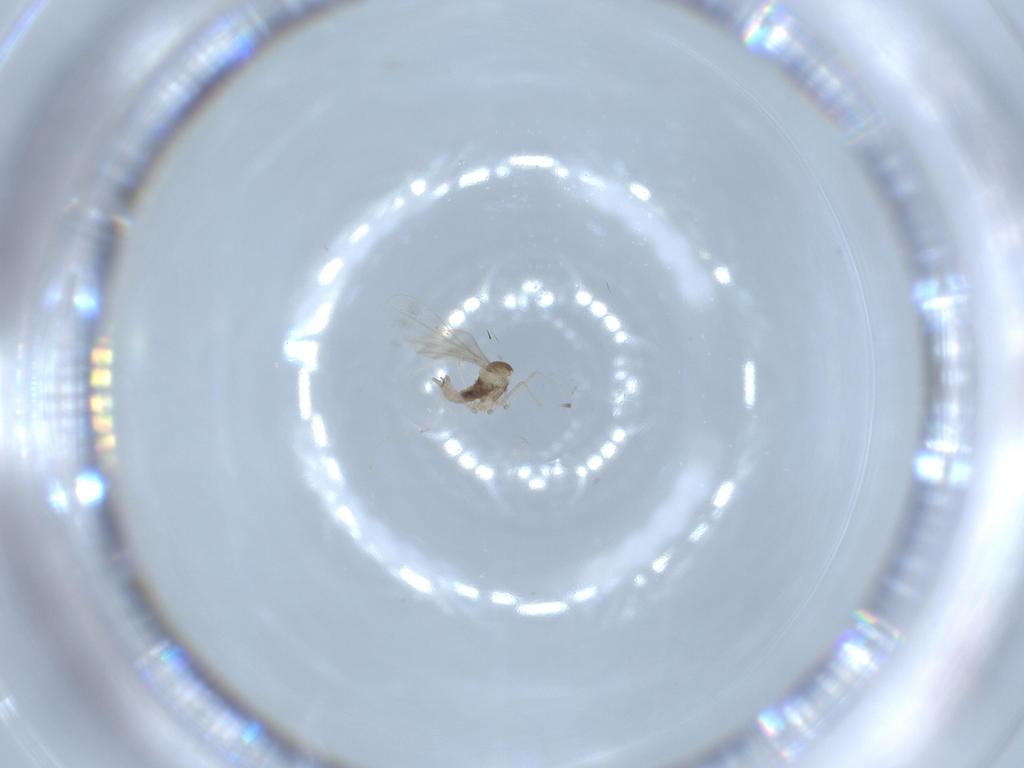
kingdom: Animalia
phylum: Arthropoda
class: Insecta
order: Diptera
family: Cecidomyiidae
